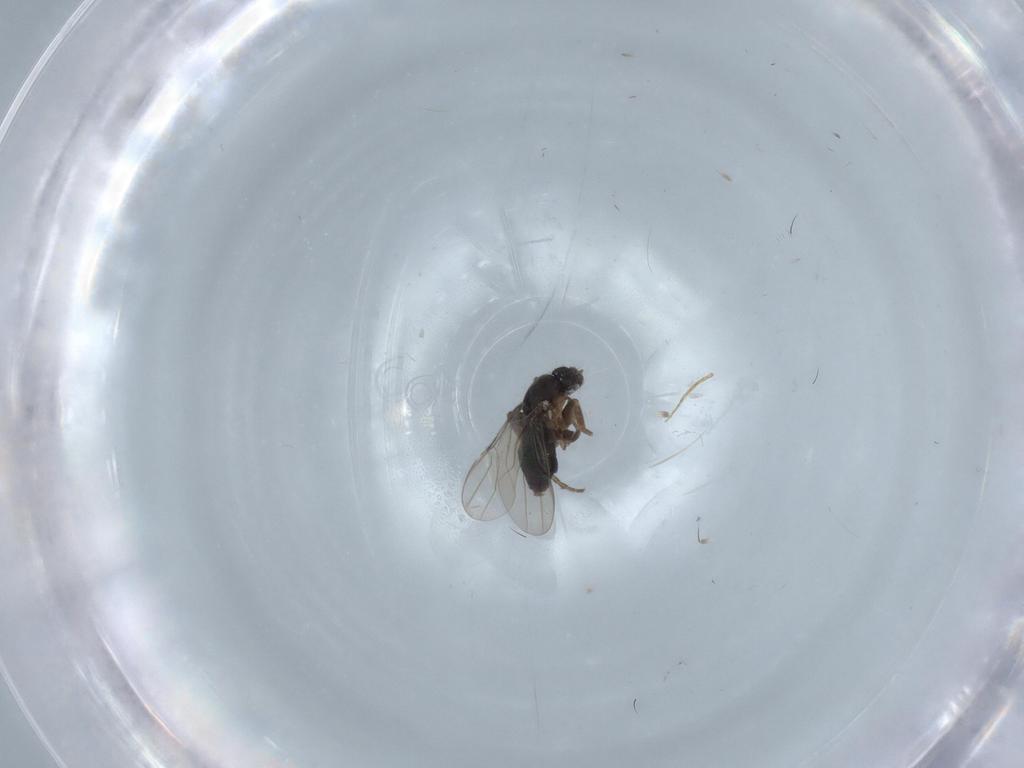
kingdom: Animalia
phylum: Arthropoda
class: Insecta
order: Diptera
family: Phoridae
